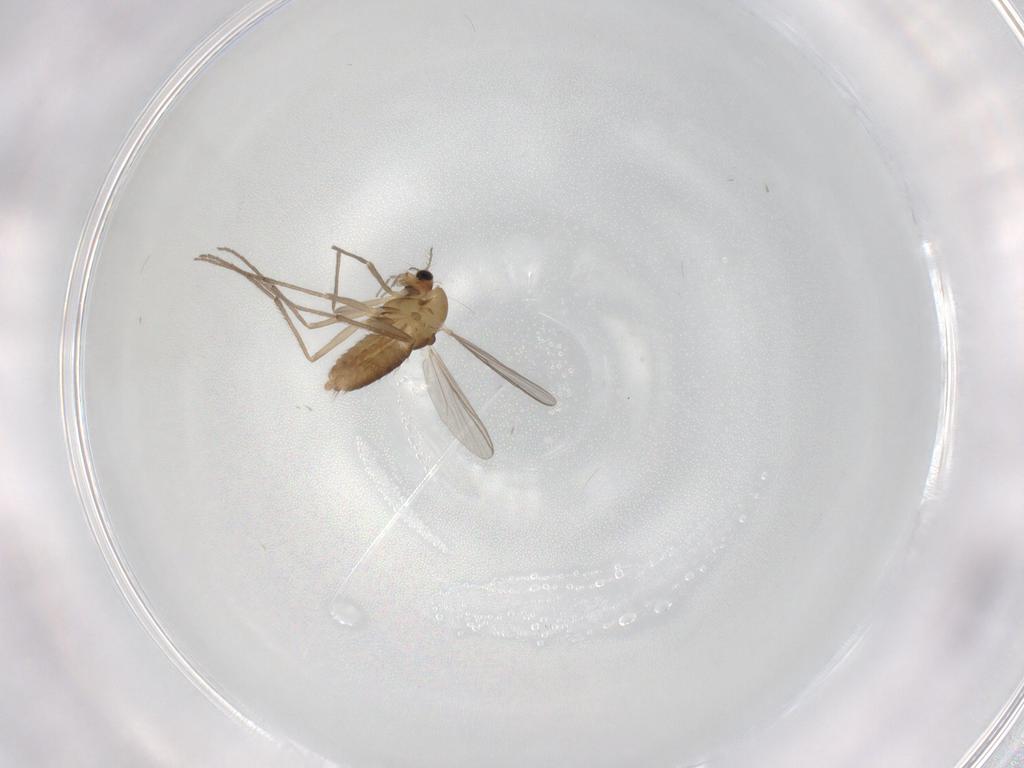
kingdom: Animalia
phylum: Arthropoda
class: Insecta
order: Diptera
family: Chironomidae
